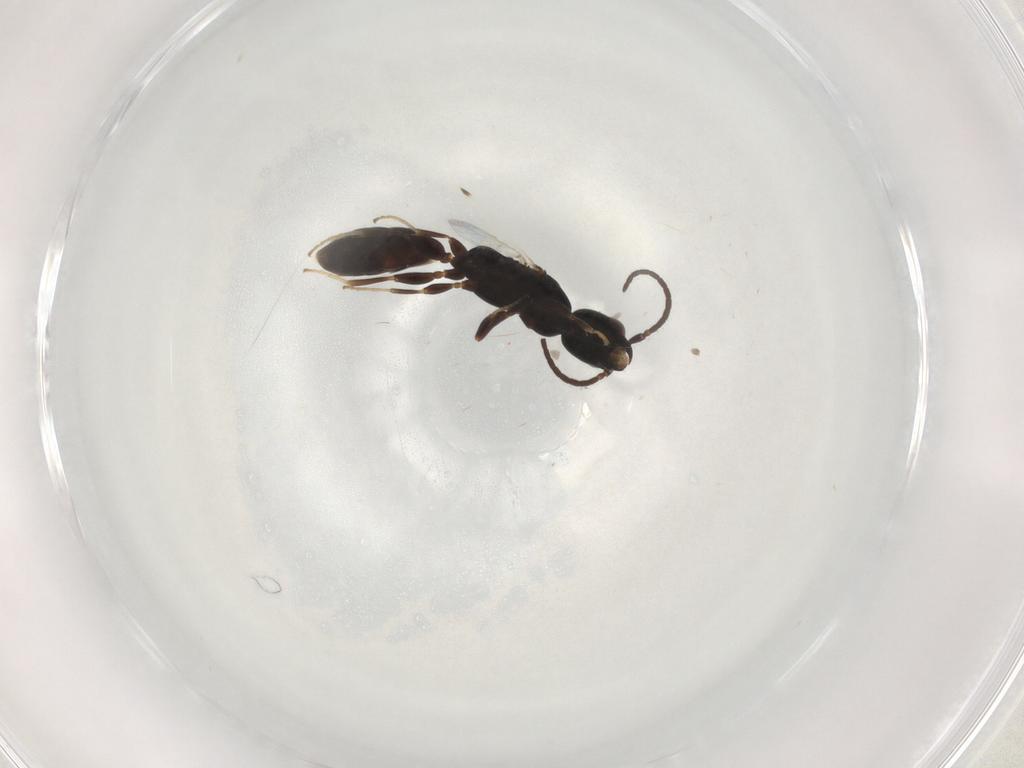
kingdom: Animalia
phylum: Arthropoda
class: Insecta
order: Hymenoptera
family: Bethylidae
